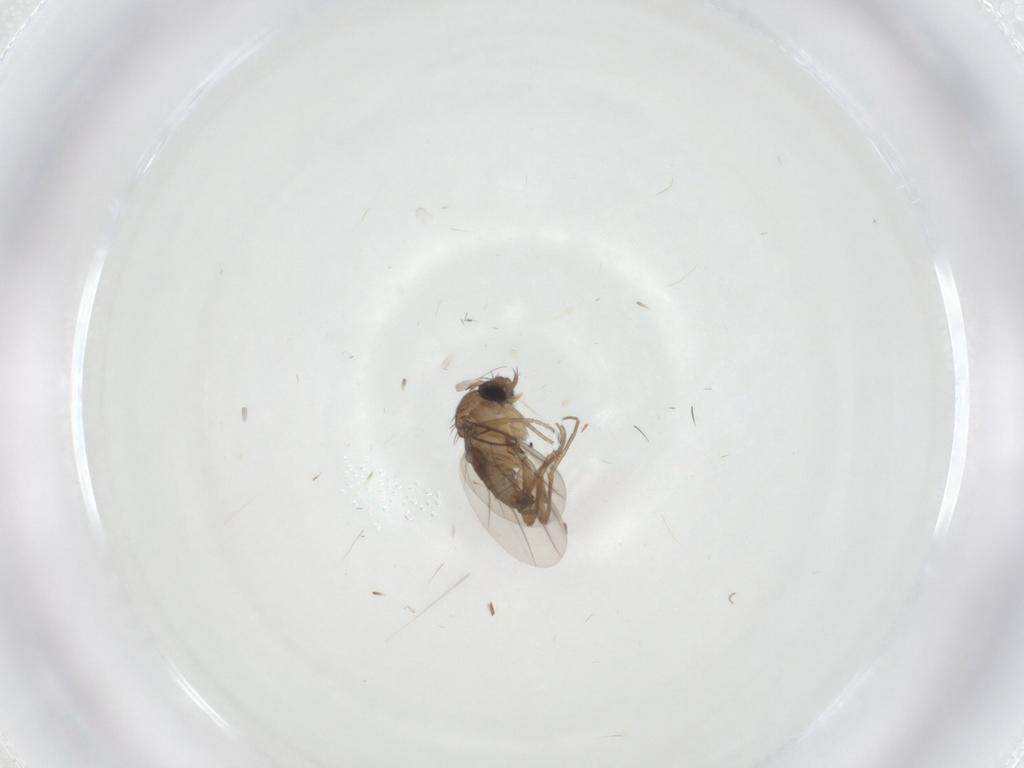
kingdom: Animalia
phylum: Arthropoda
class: Insecta
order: Diptera
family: Phoridae
